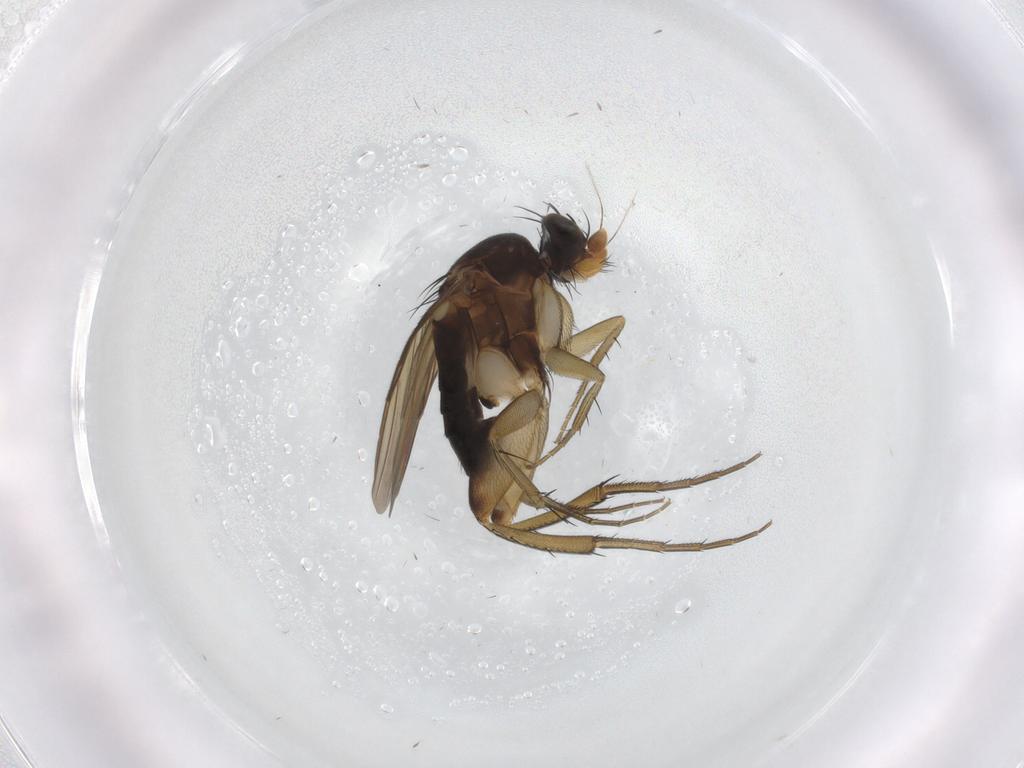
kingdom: Animalia
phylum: Arthropoda
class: Insecta
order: Diptera
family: Phoridae
